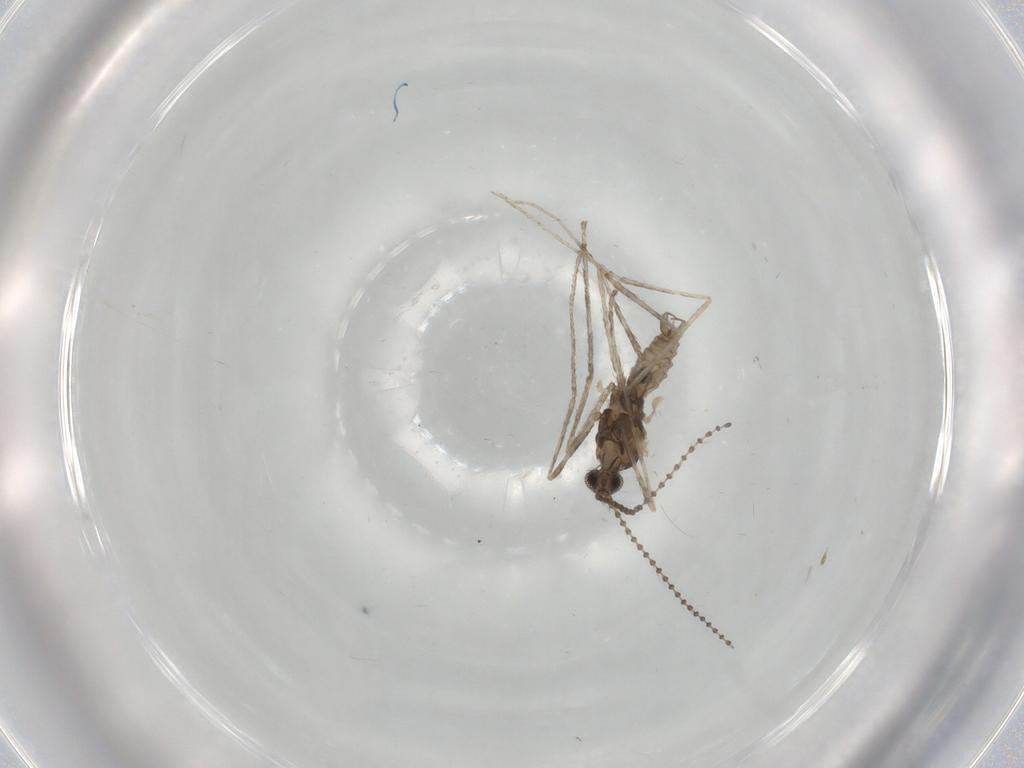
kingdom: Animalia
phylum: Arthropoda
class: Insecta
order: Diptera
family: Cecidomyiidae
